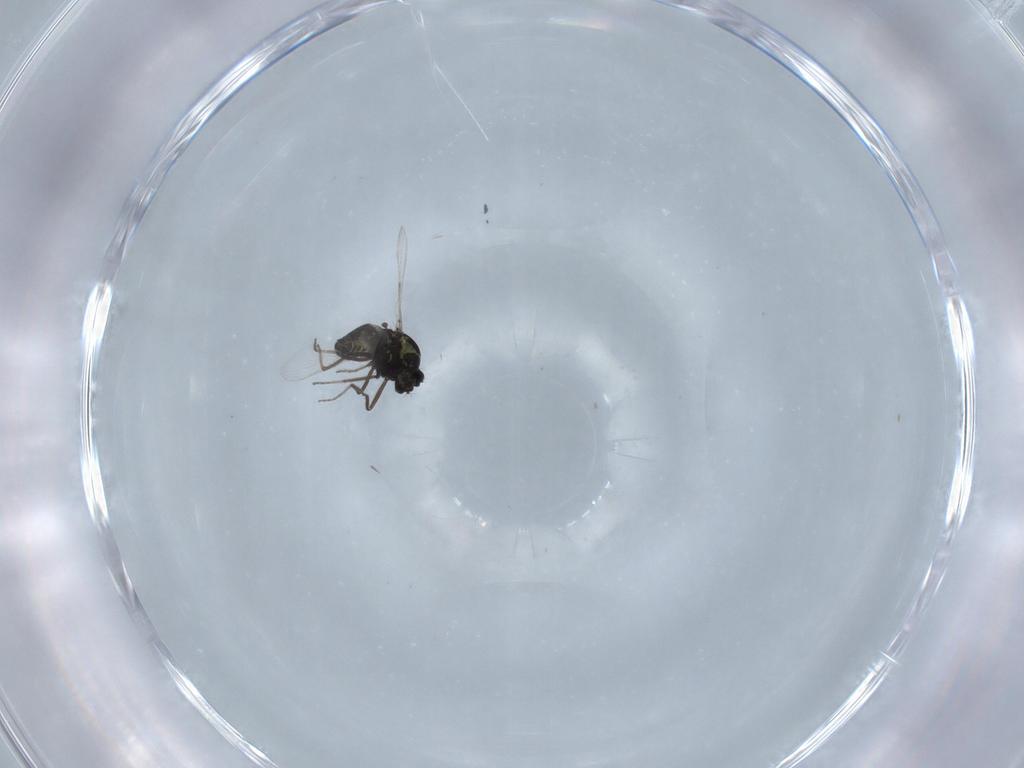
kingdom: Animalia
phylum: Arthropoda
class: Insecta
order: Diptera
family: Ceratopogonidae
